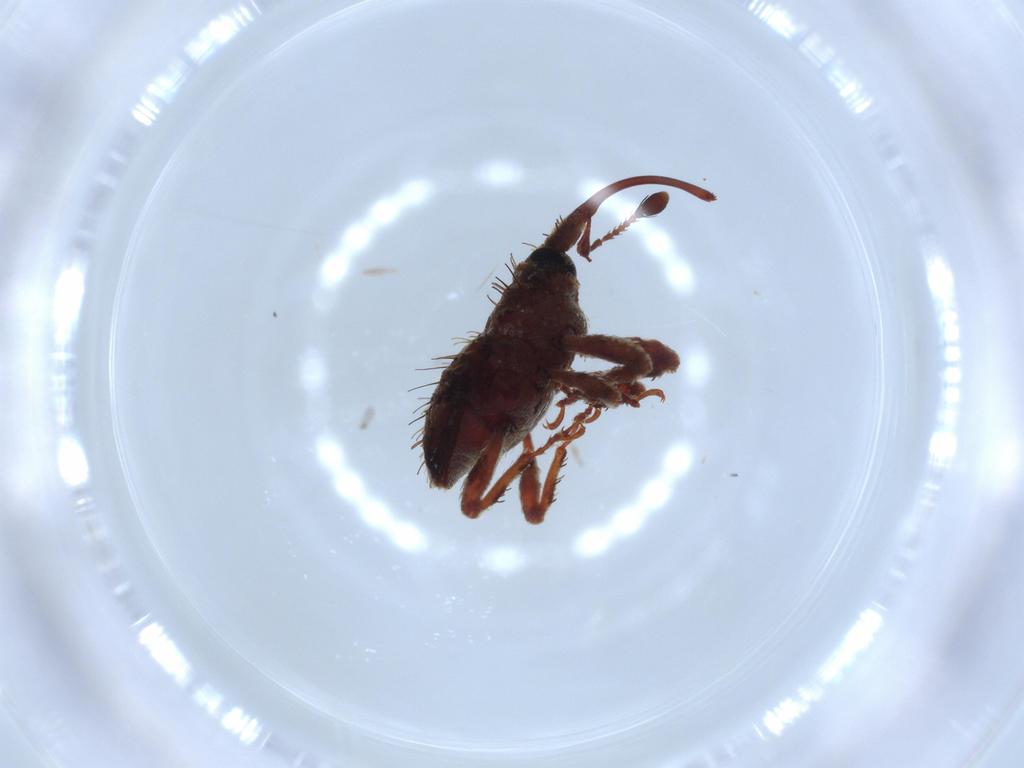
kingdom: Animalia
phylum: Arthropoda
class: Insecta
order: Coleoptera
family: Curculionidae
